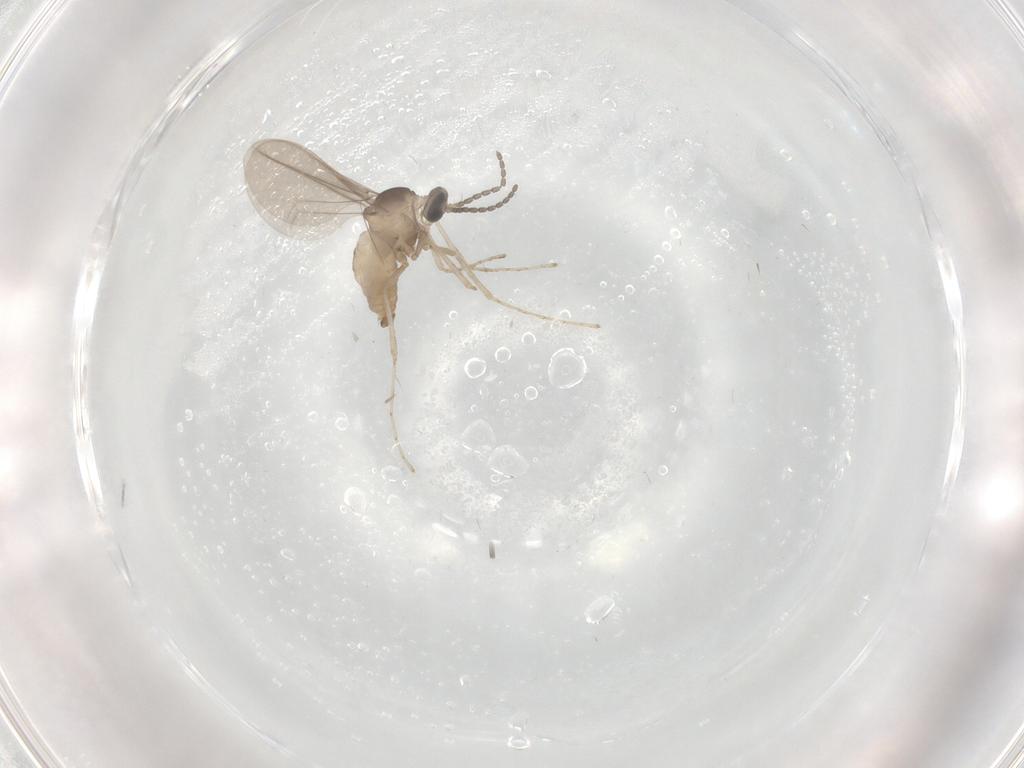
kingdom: Animalia
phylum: Arthropoda
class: Insecta
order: Diptera
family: Cecidomyiidae
